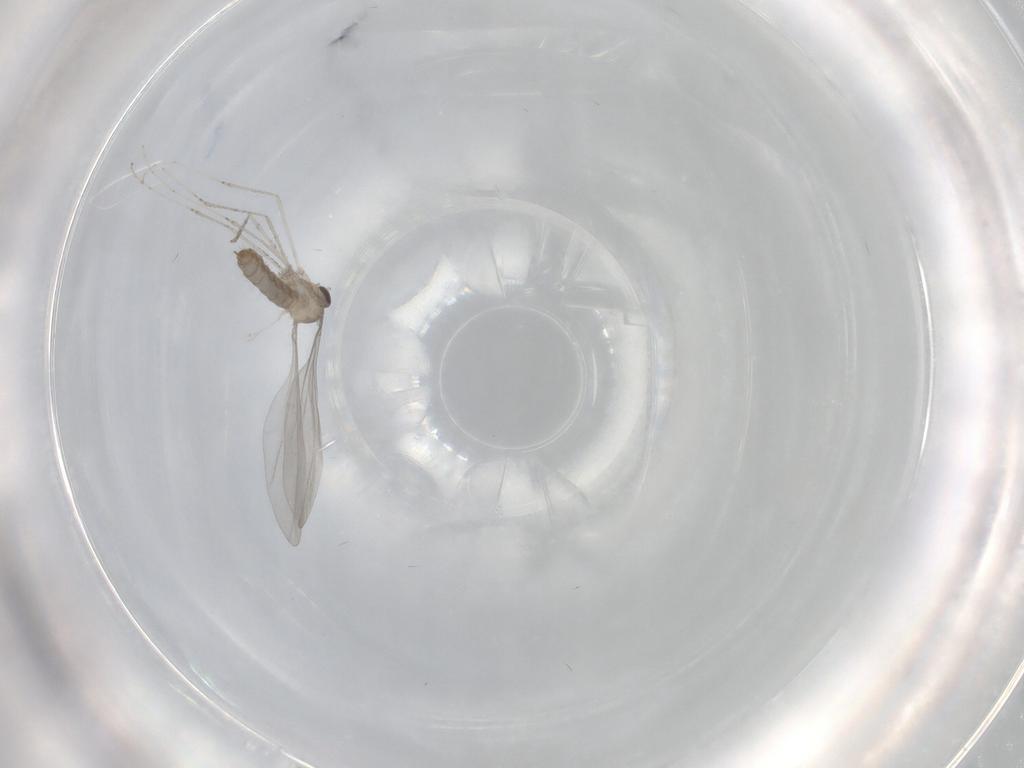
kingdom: Animalia
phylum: Arthropoda
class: Insecta
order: Diptera
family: Cecidomyiidae
